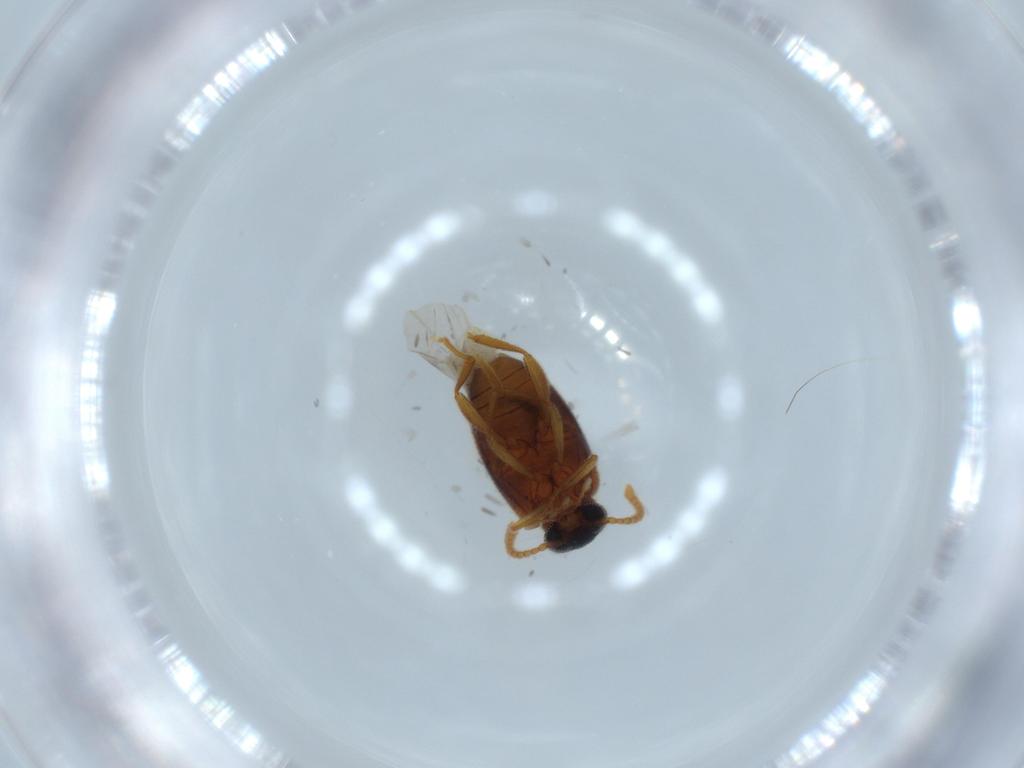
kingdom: Animalia
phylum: Arthropoda
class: Insecta
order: Coleoptera
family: Aderidae
